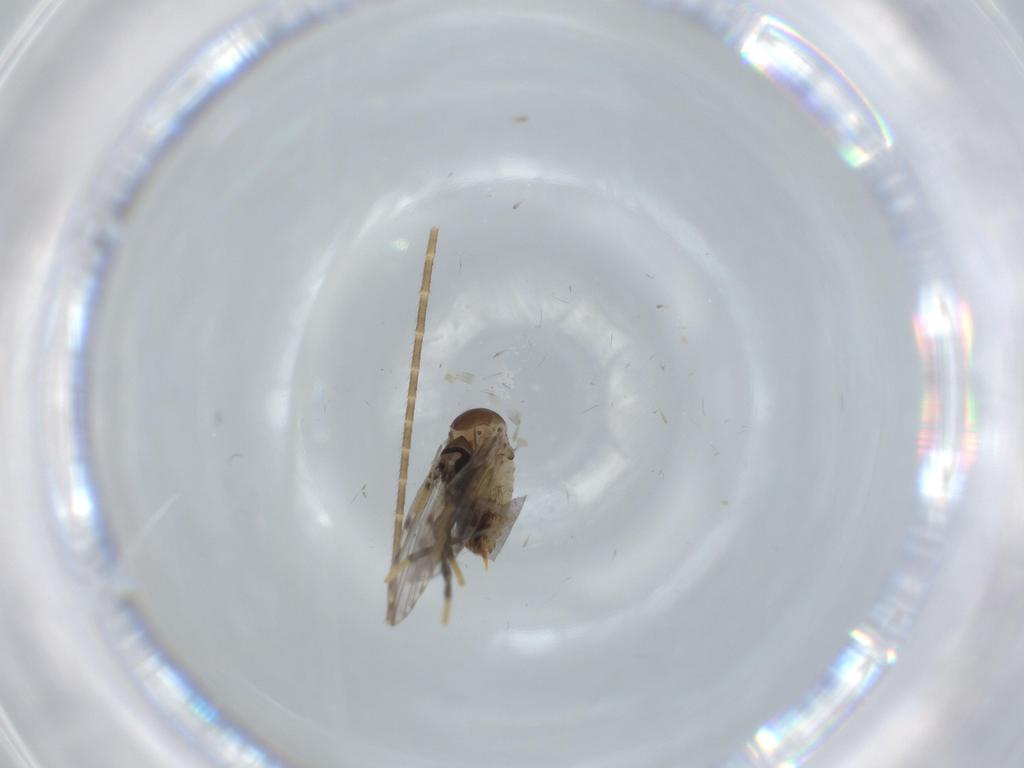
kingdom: Animalia
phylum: Arthropoda
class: Insecta
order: Diptera
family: Psychodidae
